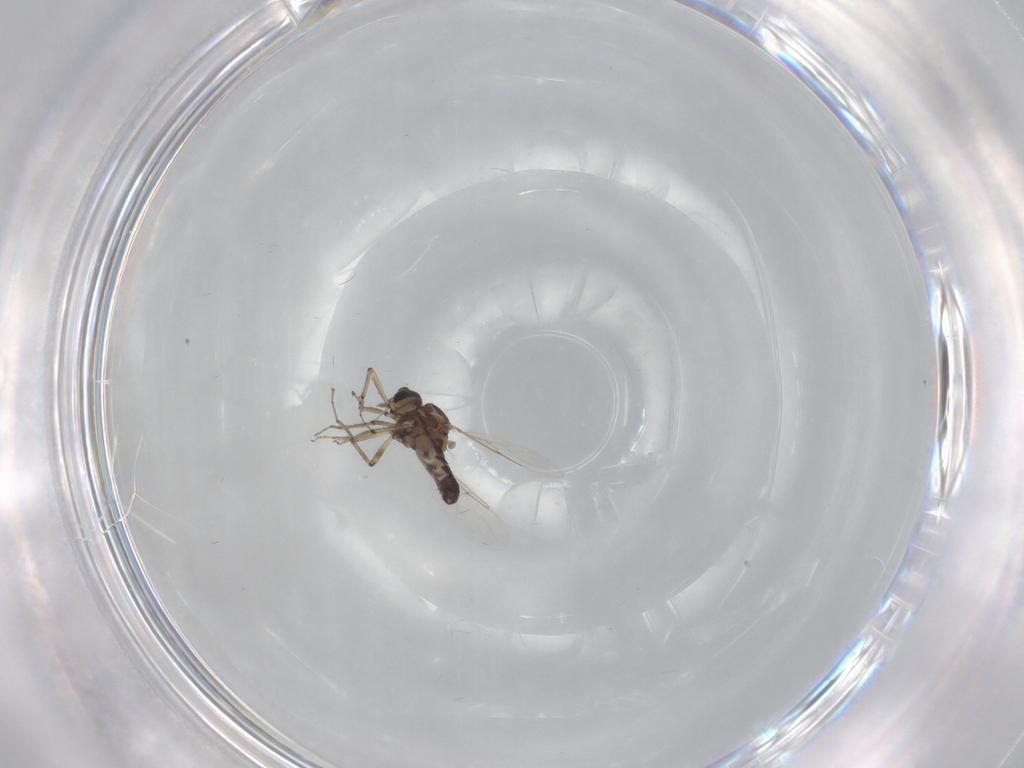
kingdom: Animalia
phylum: Arthropoda
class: Insecta
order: Diptera
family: Ceratopogonidae
